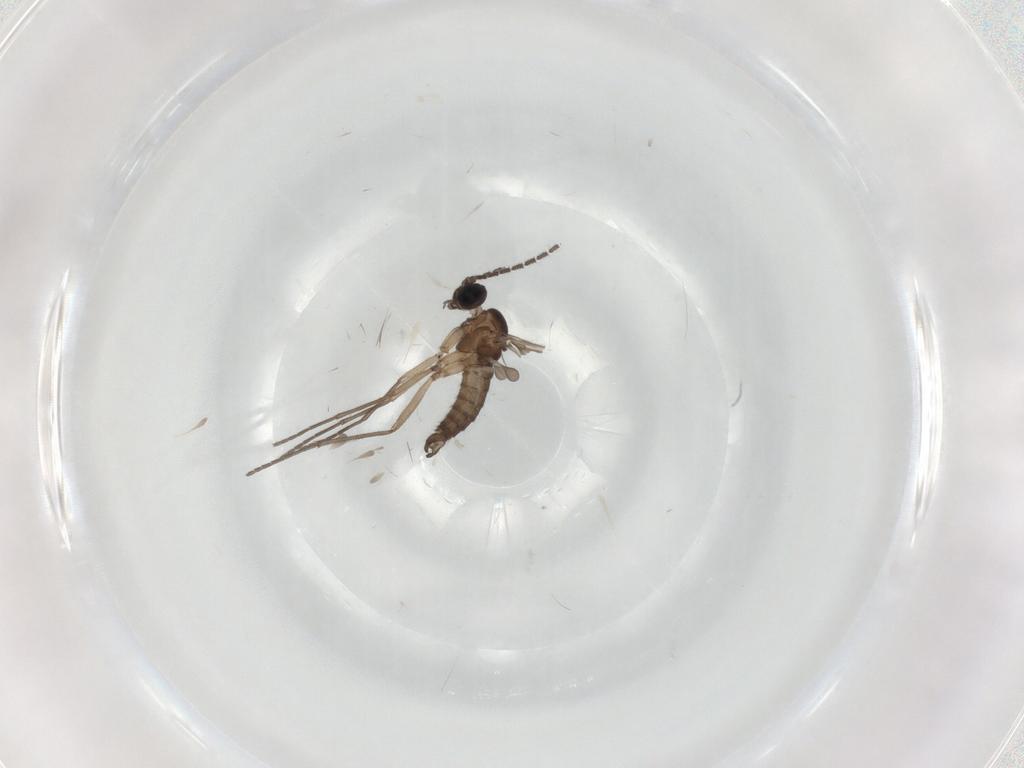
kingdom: Animalia
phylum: Arthropoda
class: Insecta
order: Diptera
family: Sciaridae
